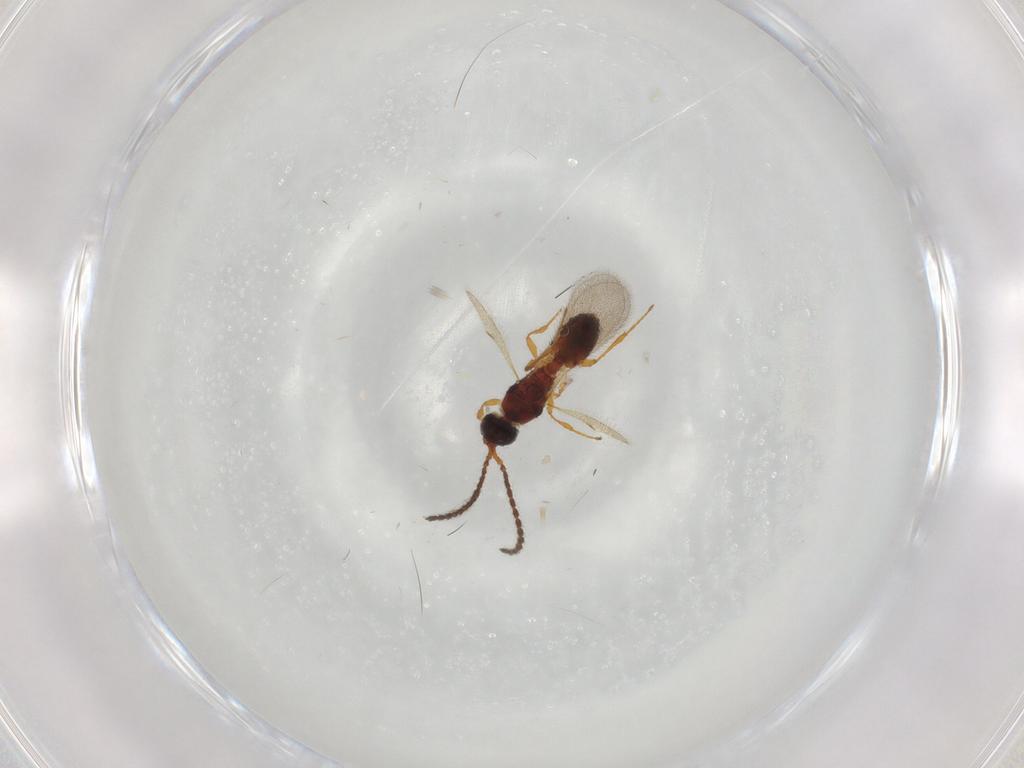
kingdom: Animalia
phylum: Arthropoda
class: Insecta
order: Hymenoptera
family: Diapriidae
